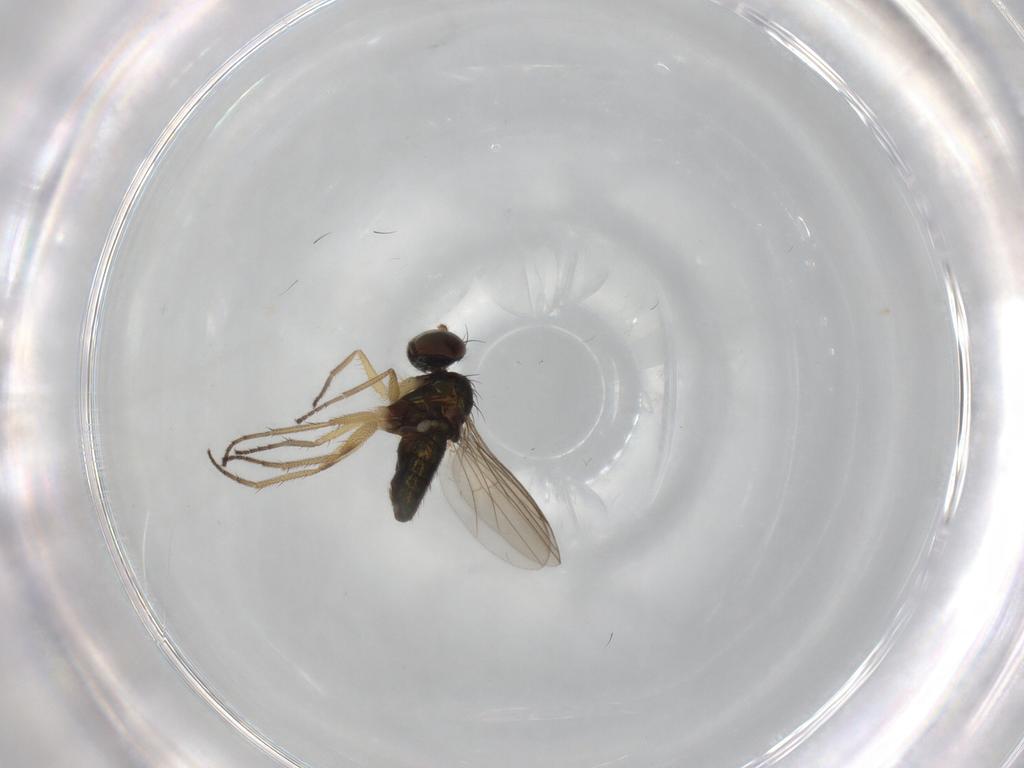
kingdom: Animalia
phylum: Arthropoda
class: Insecta
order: Diptera
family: Dolichopodidae
